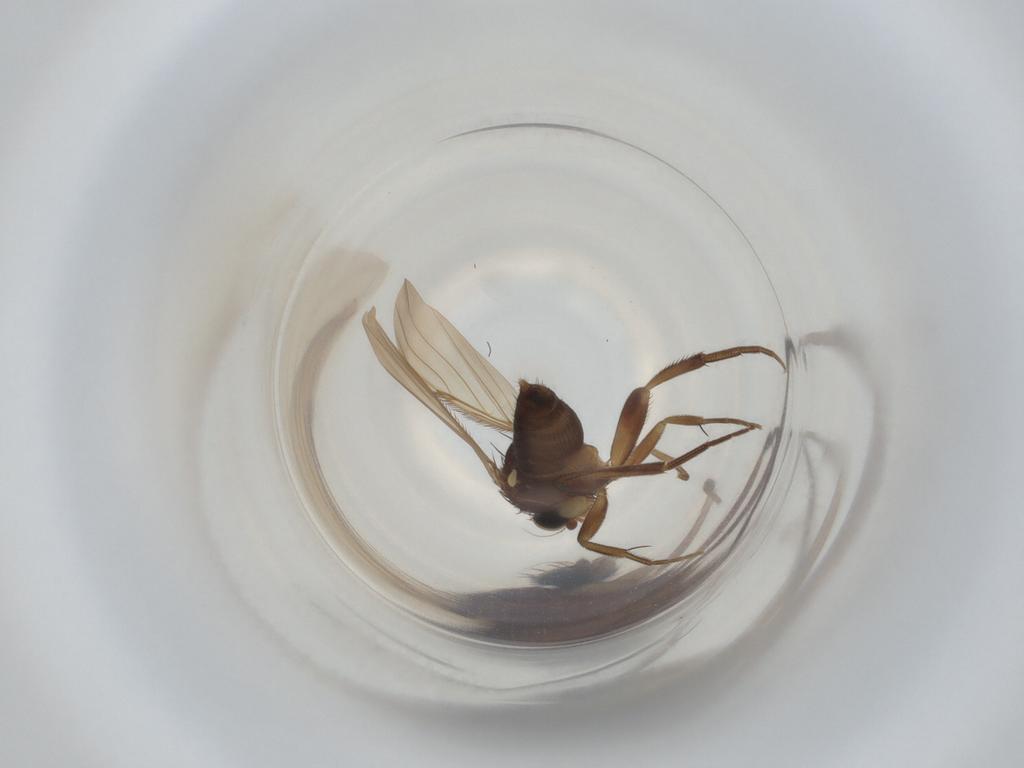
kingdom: Animalia
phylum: Arthropoda
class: Insecta
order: Diptera
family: Phoridae
